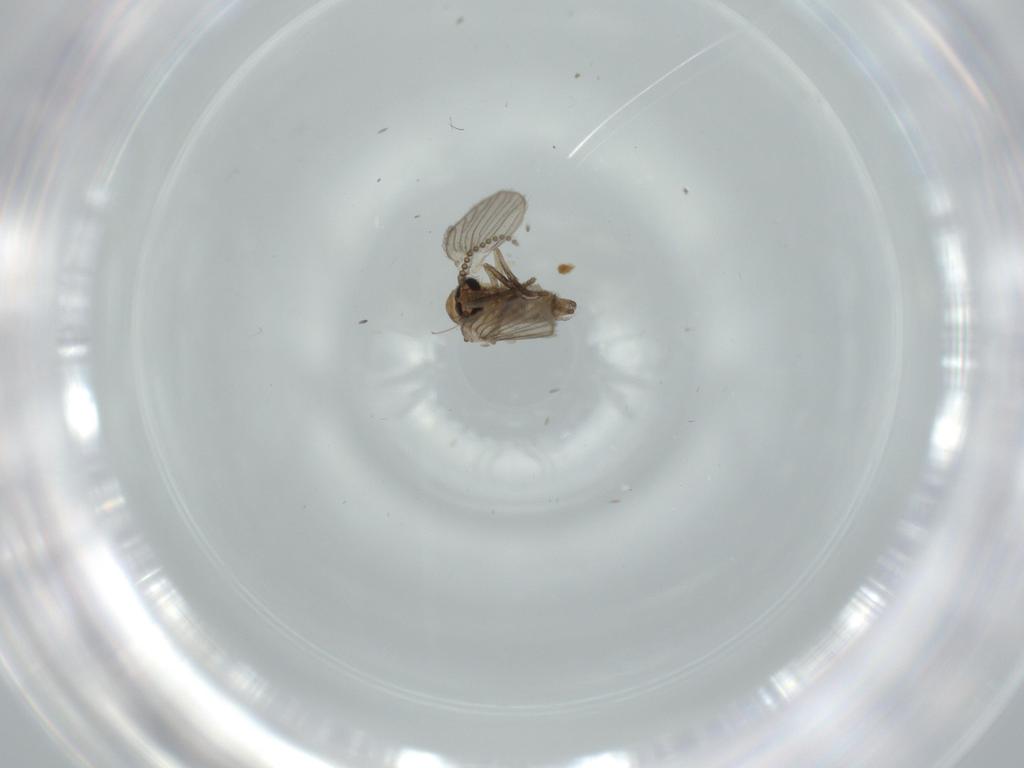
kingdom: Animalia
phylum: Arthropoda
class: Insecta
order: Diptera
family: Psychodidae
